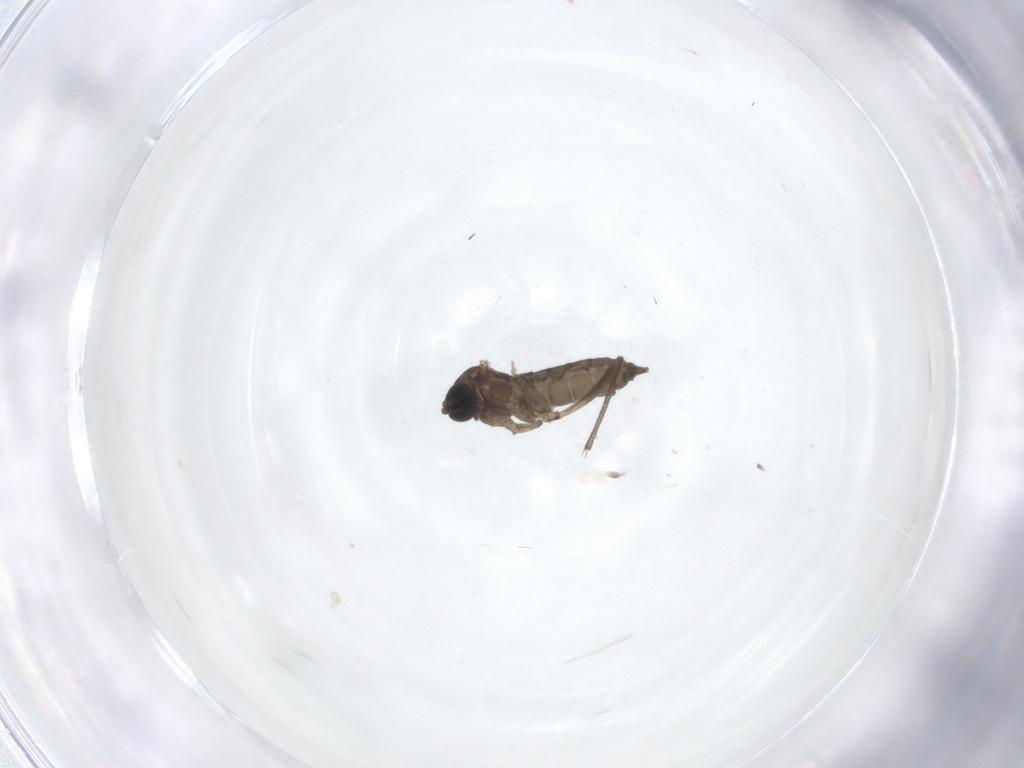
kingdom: Animalia
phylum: Arthropoda
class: Insecta
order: Diptera
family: Sciaridae
